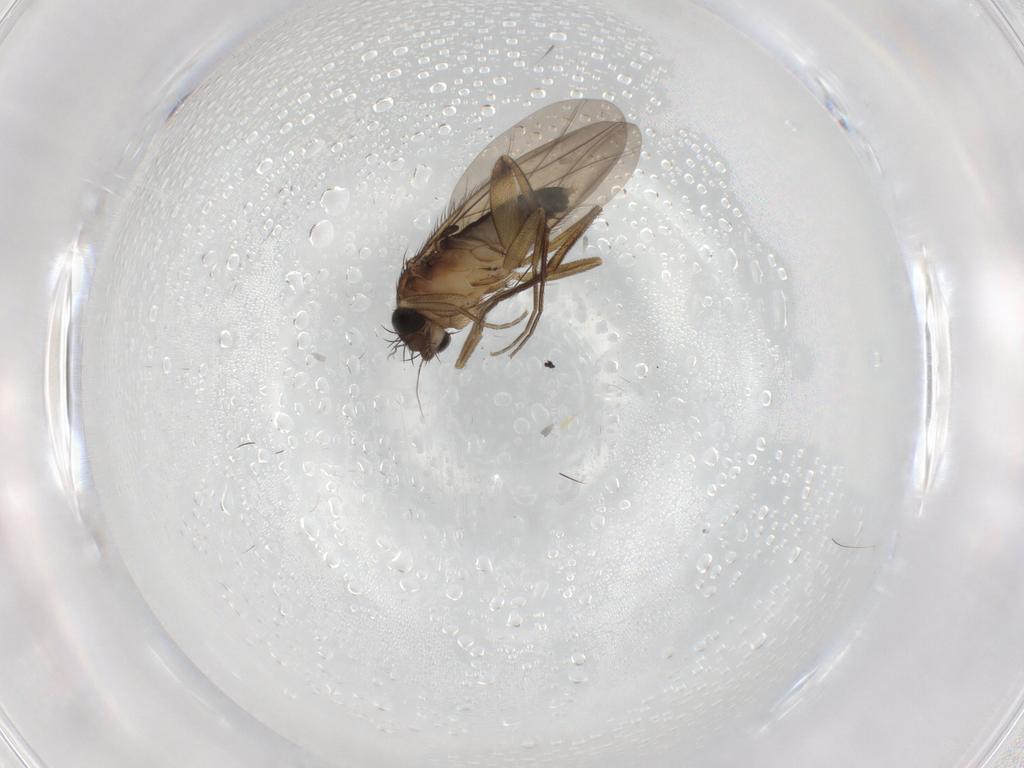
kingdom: Animalia
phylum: Arthropoda
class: Insecta
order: Diptera
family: Phoridae
